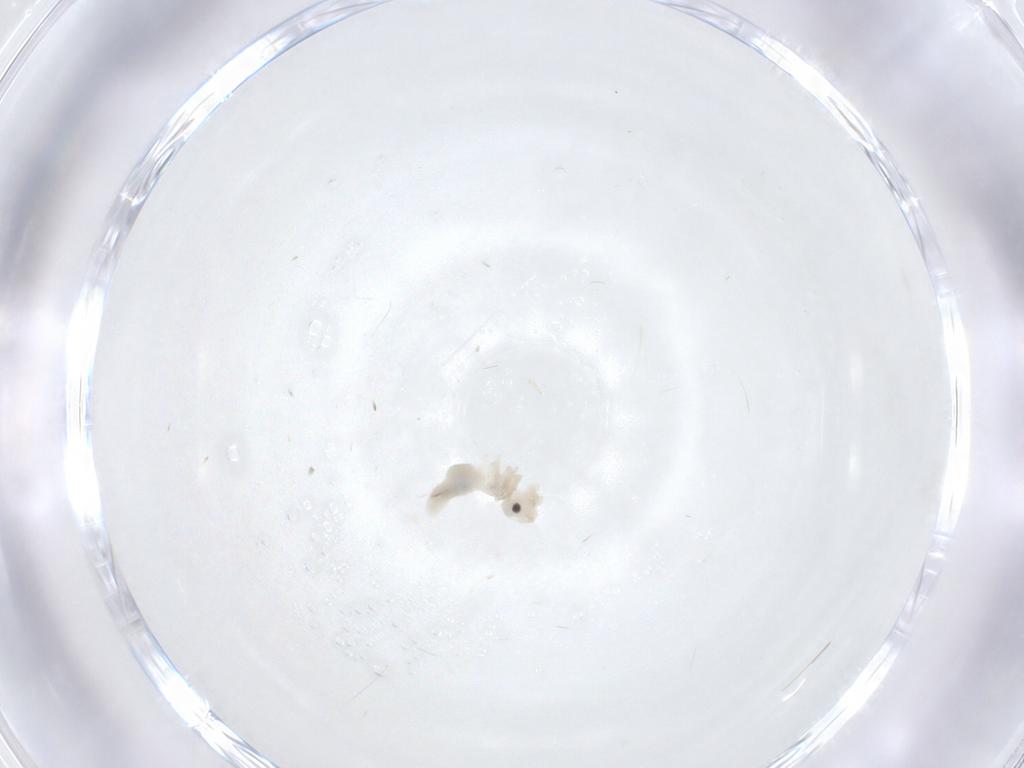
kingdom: Animalia
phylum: Arthropoda
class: Insecta
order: Psocodea
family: Caeciliusidae
